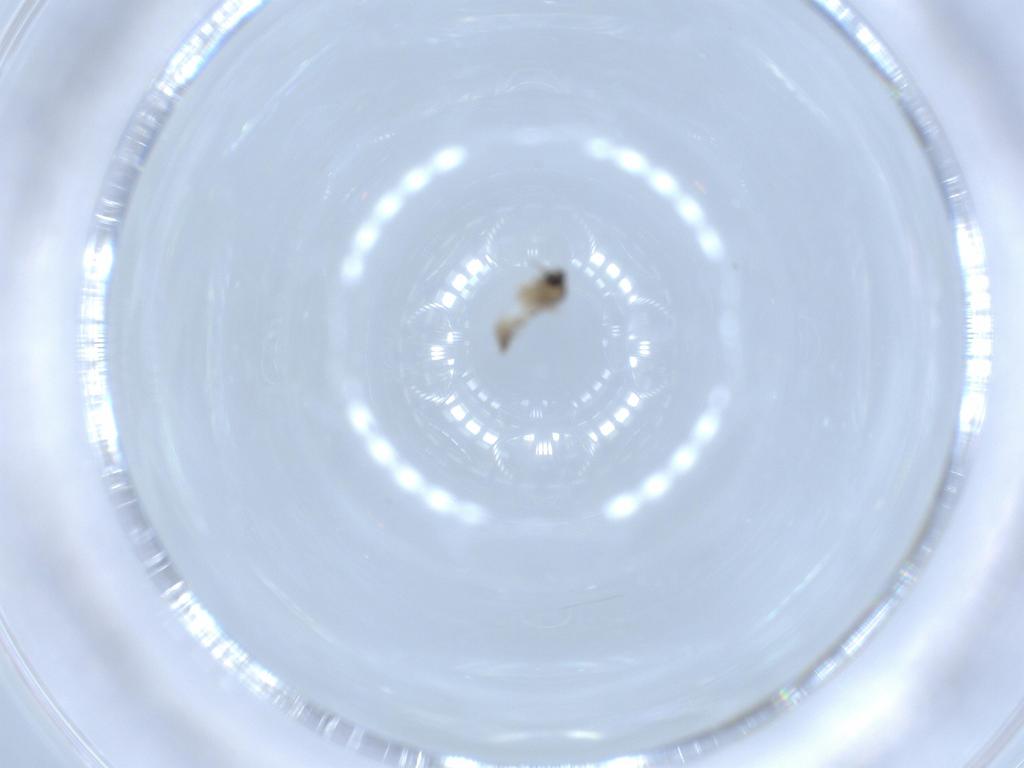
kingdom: Animalia
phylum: Arthropoda
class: Insecta
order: Diptera
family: Cecidomyiidae
